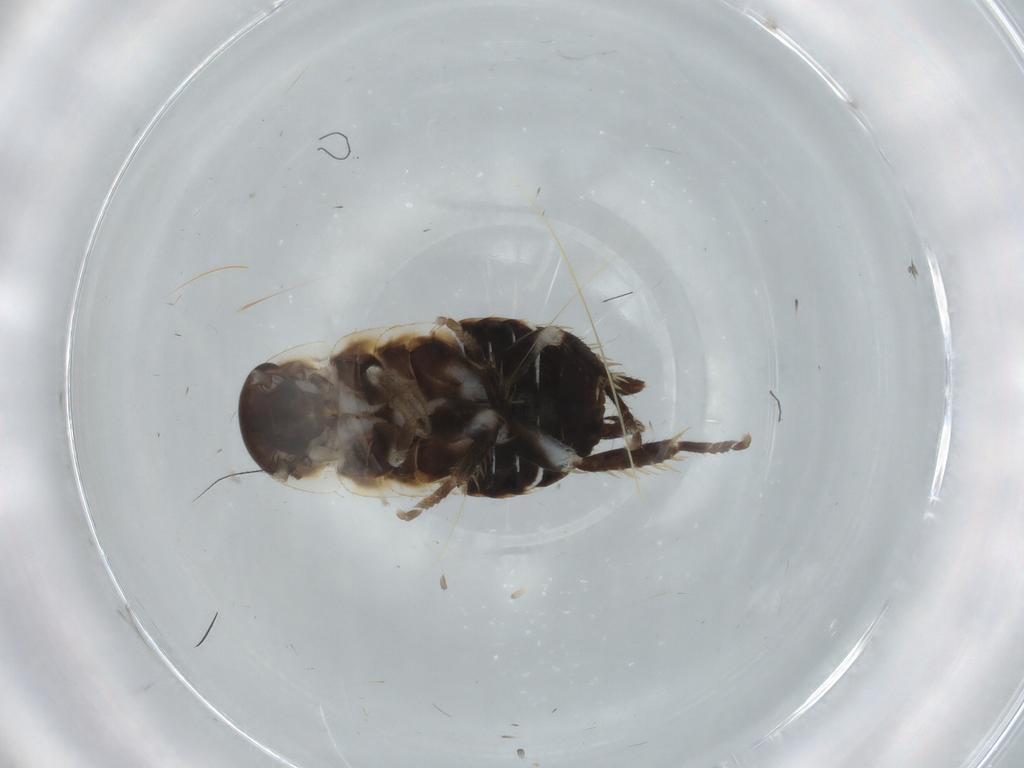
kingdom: Animalia
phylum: Arthropoda
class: Insecta
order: Blattodea
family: Ectobiidae
